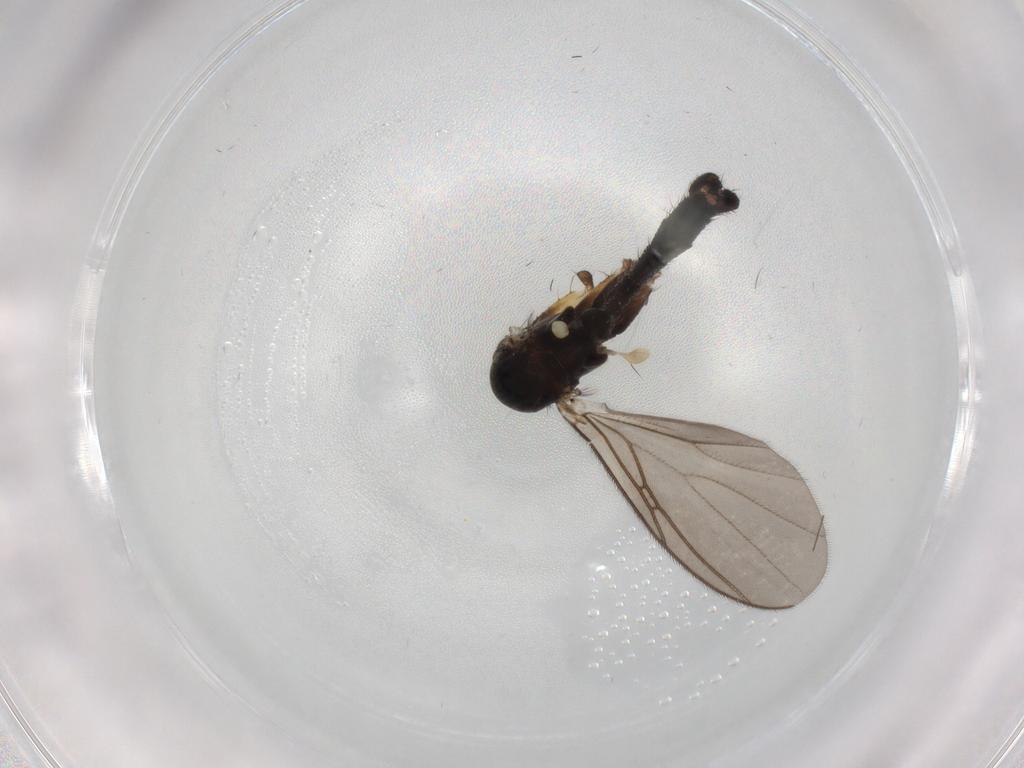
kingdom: Animalia
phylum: Arthropoda
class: Insecta
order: Diptera
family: Mycetophilidae
